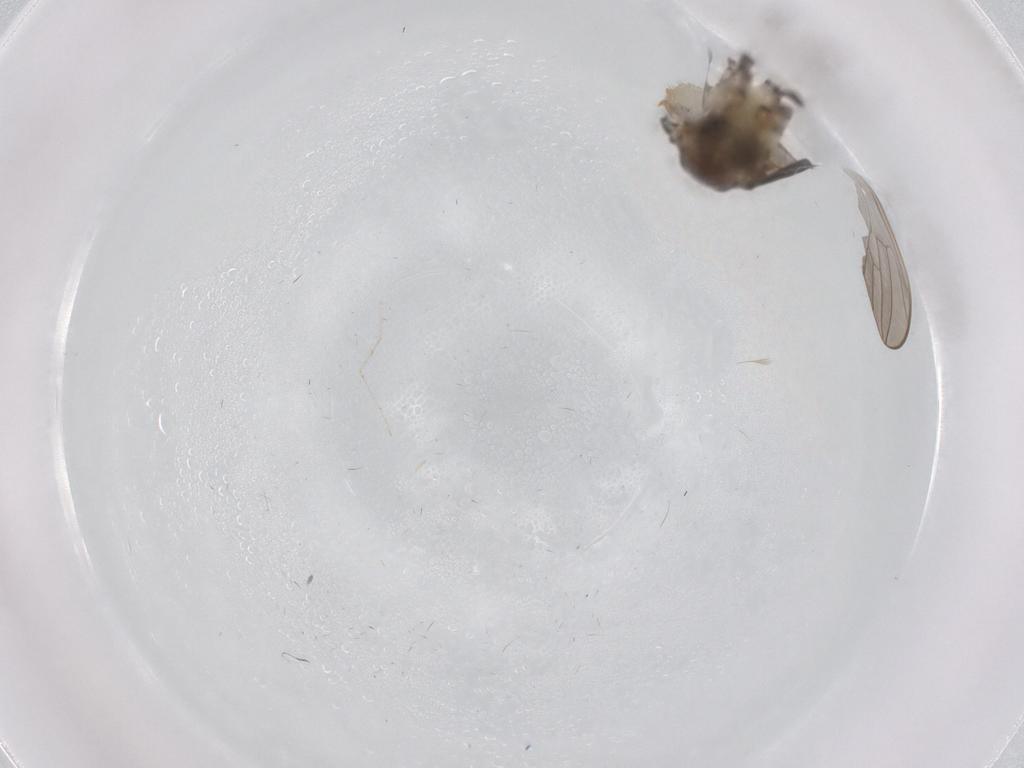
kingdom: Animalia
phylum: Arthropoda
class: Insecta
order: Diptera
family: Limoniidae
